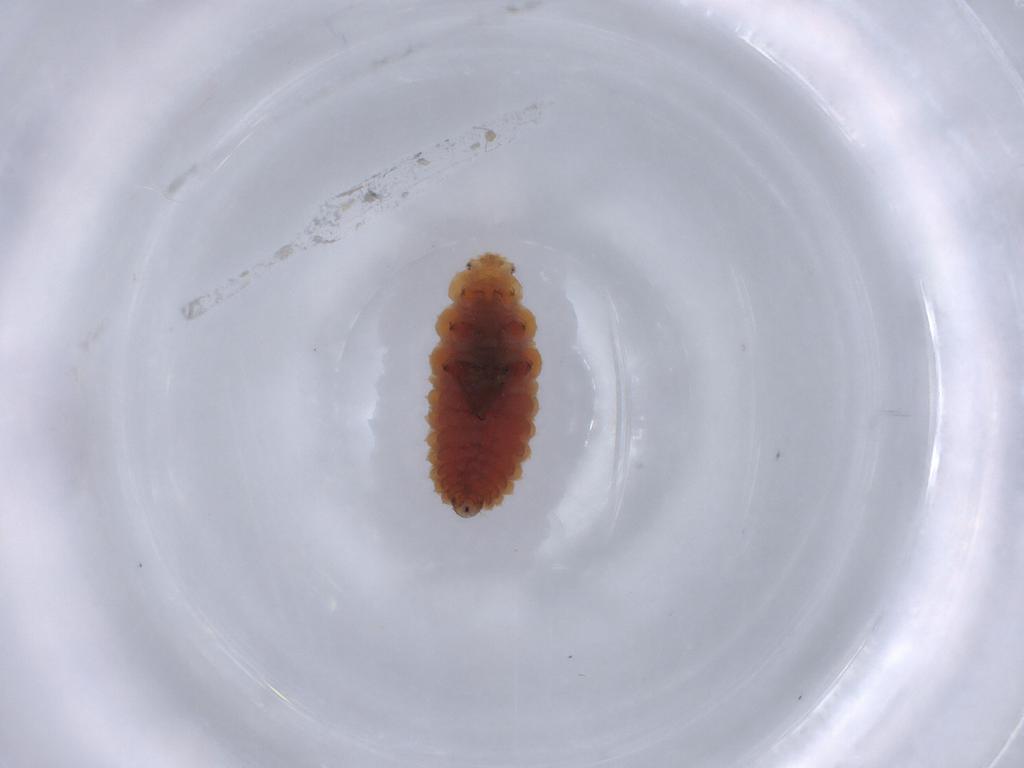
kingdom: Animalia
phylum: Arthropoda
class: Insecta
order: Coleoptera
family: Coccinellidae
